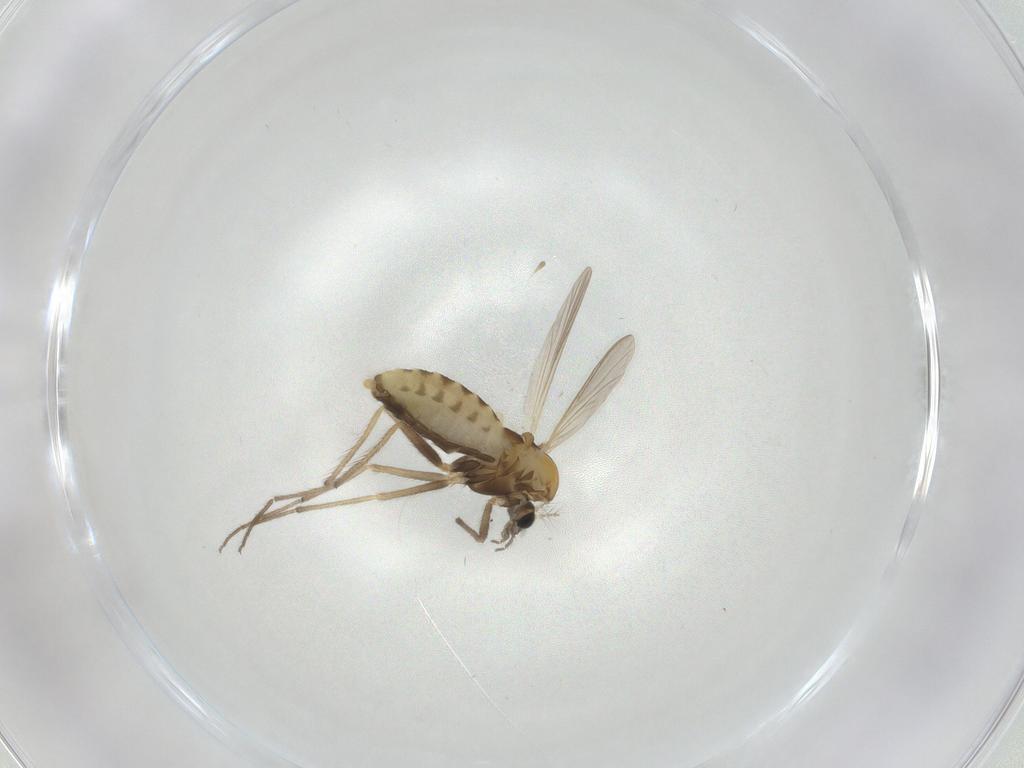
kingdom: Animalia
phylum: Arthropoda
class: Insecta
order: Diptera
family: Chironomidae
